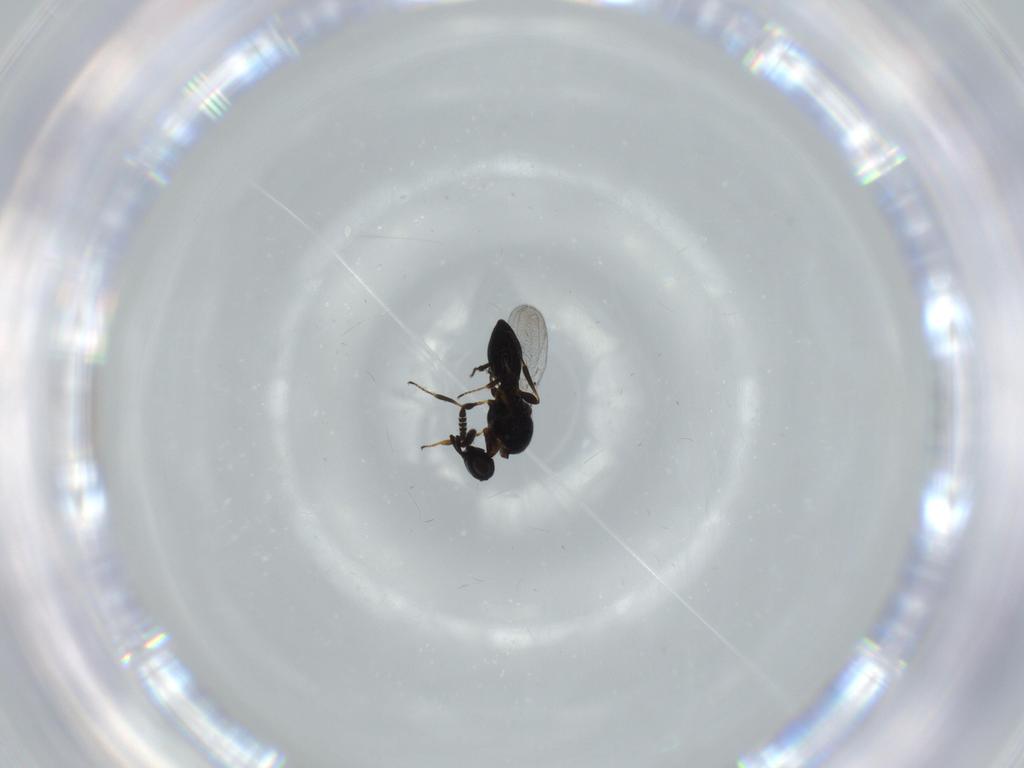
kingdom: Animalia
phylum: Arthropoda
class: Insecta
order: Hymenoptera
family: Platygastridae
